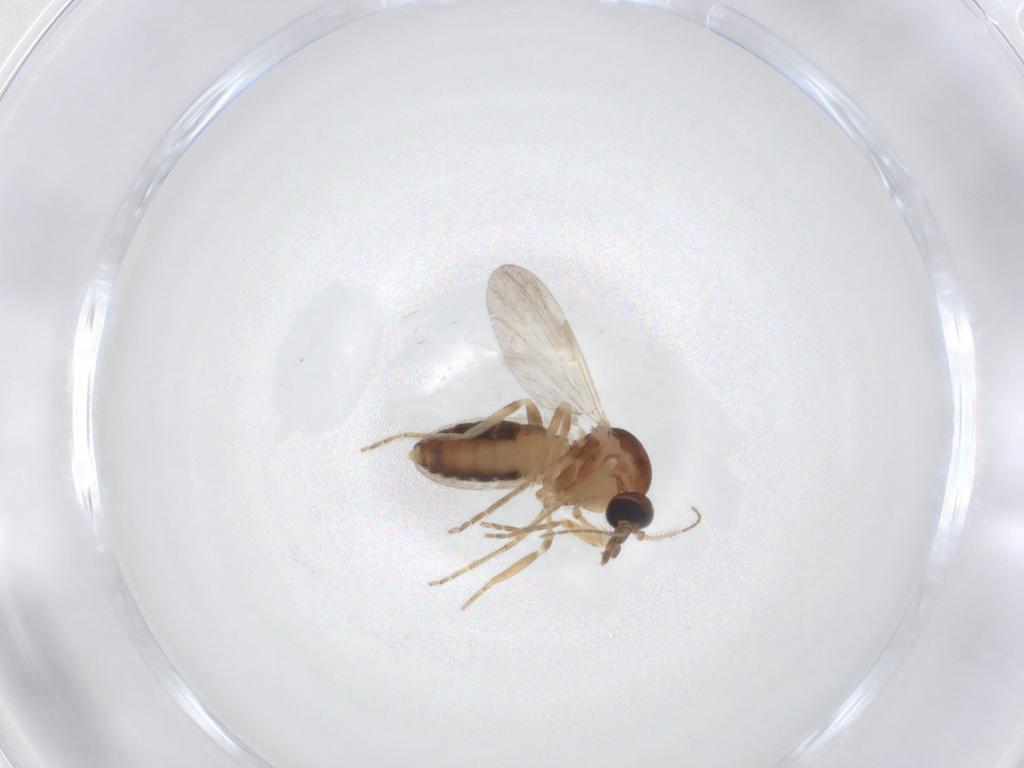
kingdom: Animalia
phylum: Arthropoda
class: Insecta
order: Diptera
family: Ceratopogonidae
